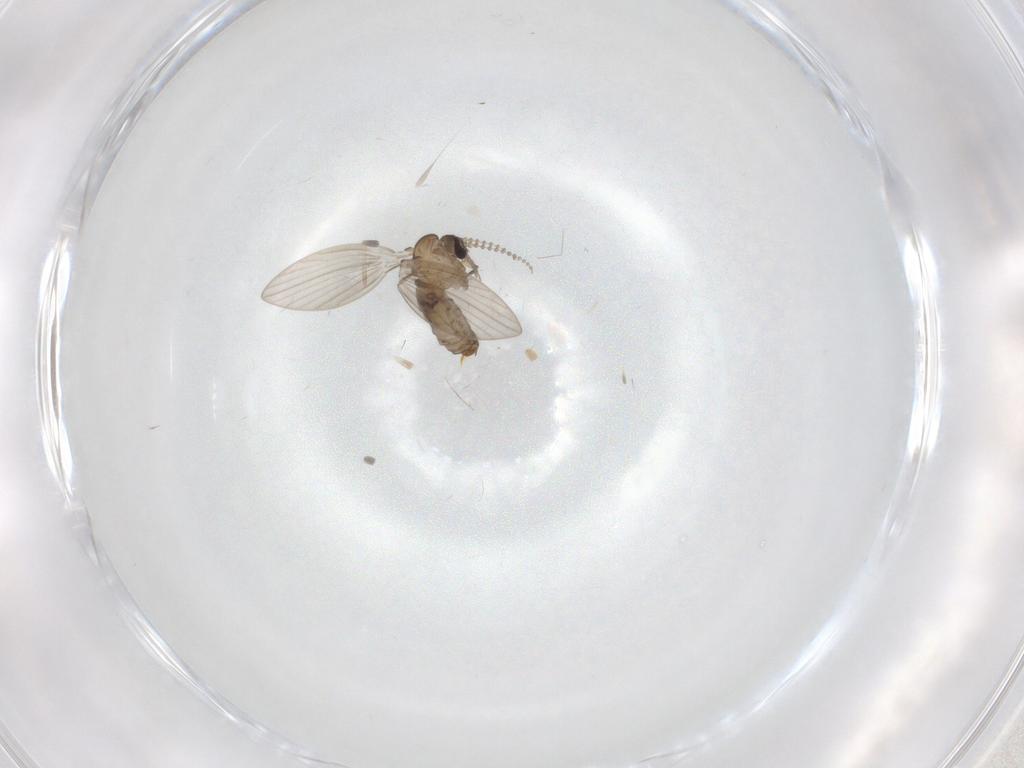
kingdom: Animalia
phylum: Arthropoda
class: Insecta
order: Diptera
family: Psychodidae
